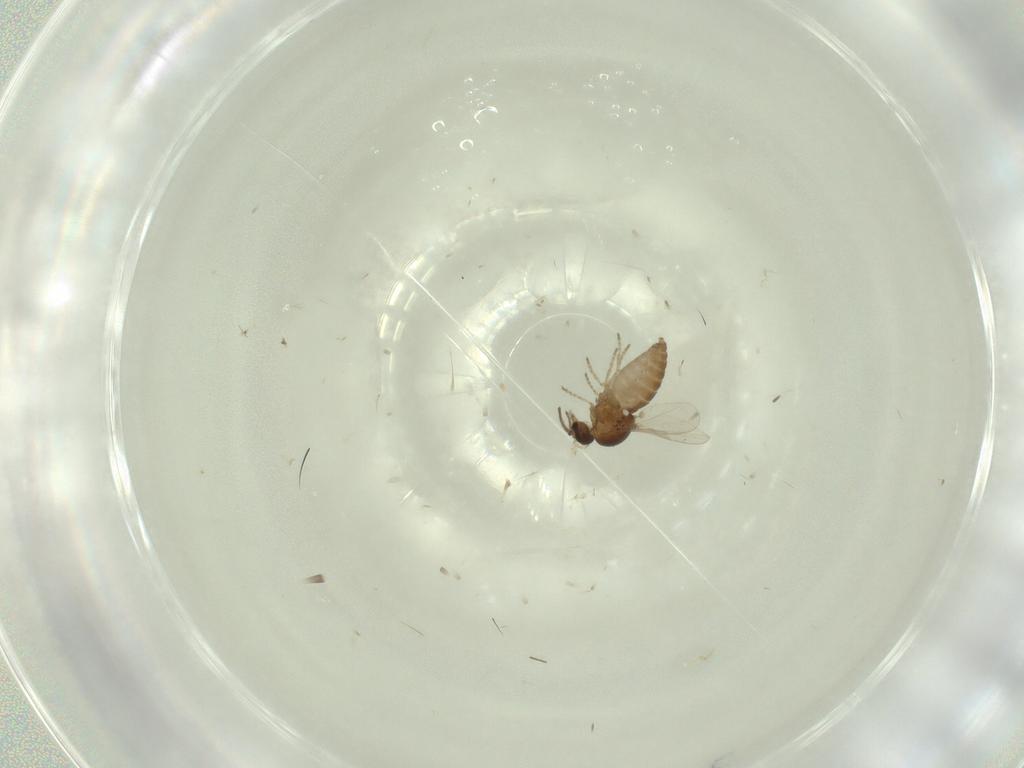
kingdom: Animalia
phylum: Arthropoda
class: Insecta
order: Diptera
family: Ceratopogonidae
